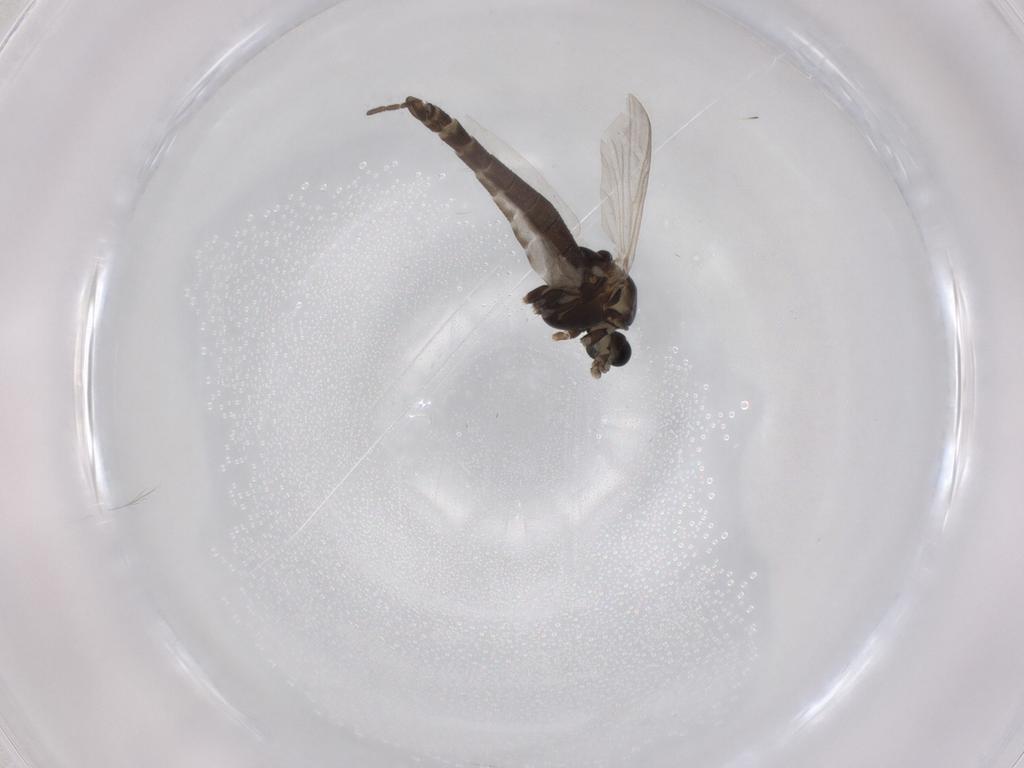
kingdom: Animalia
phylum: Arthropoda
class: Insecta
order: Diptera
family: Chironomidae
